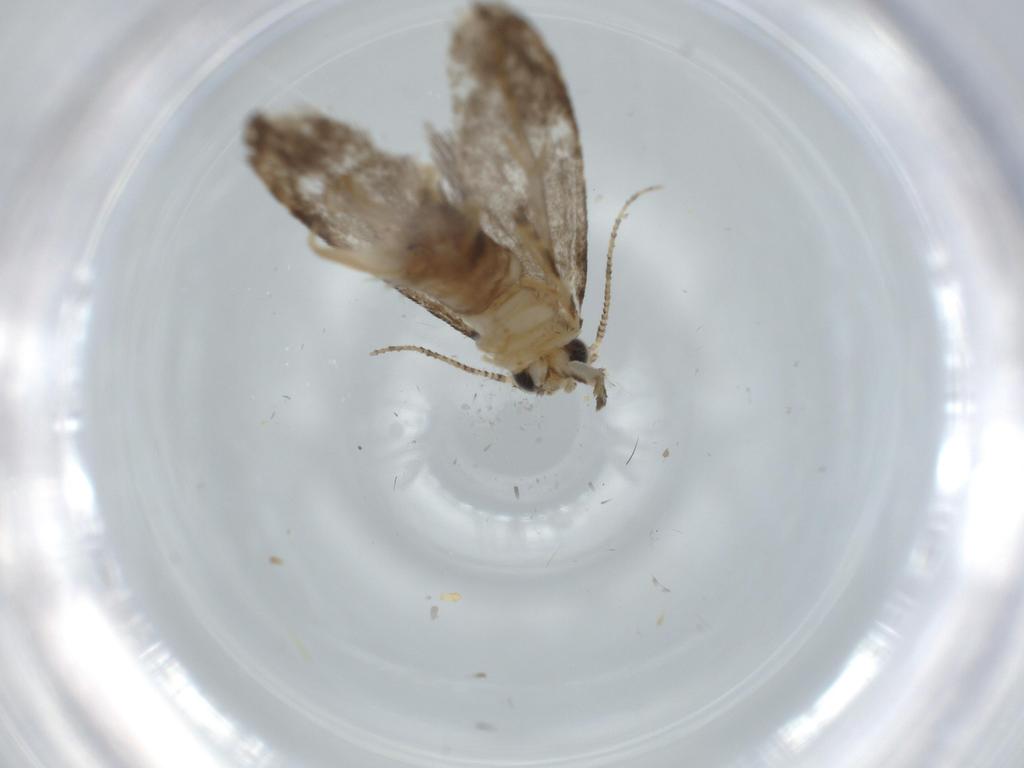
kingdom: Animalia
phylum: Arthropoda
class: Insecta
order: Lepidoptera
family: Tineidae
